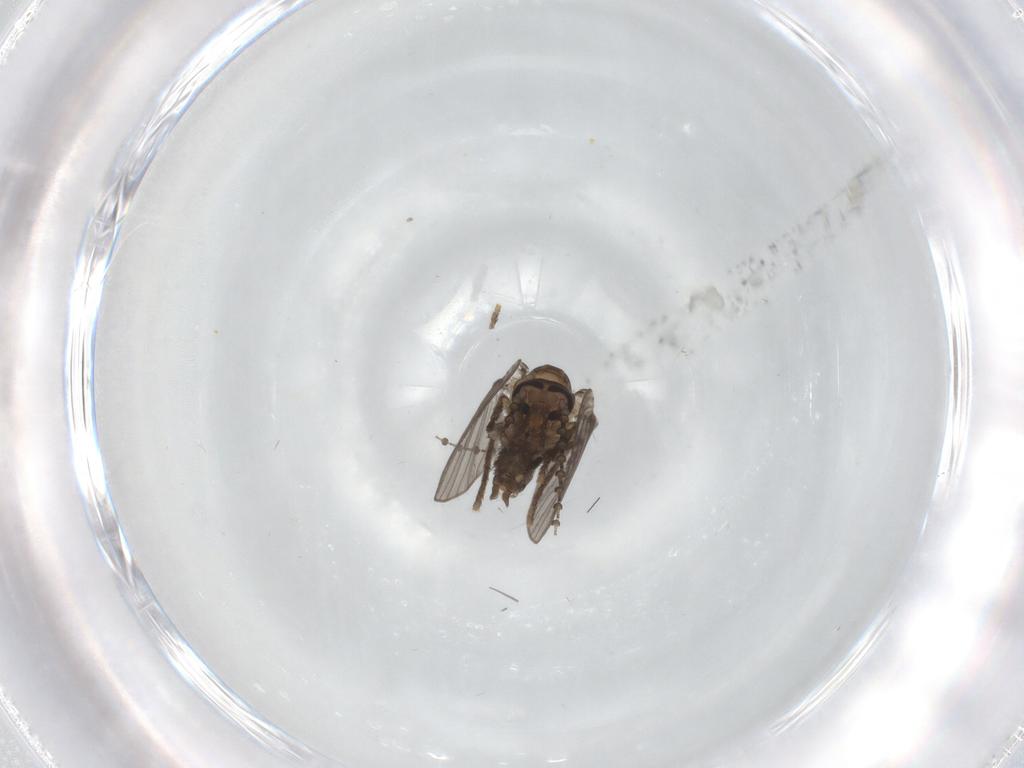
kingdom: Animalia
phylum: Arthropoda
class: Insecta
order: Diptera
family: Psychodidae
